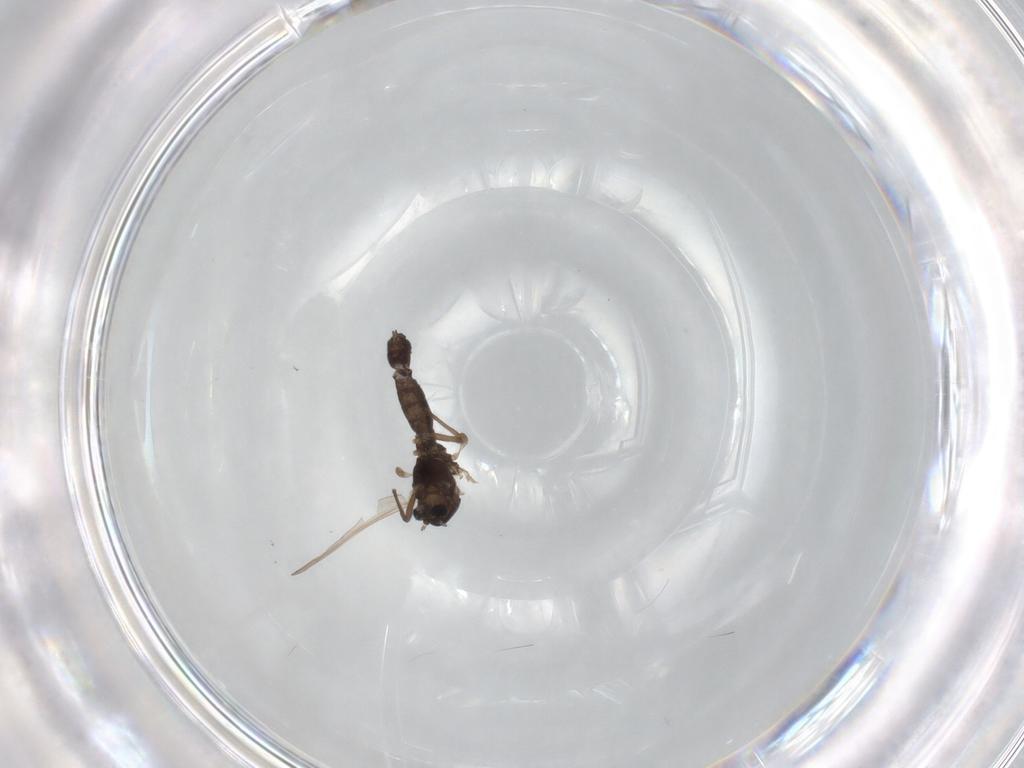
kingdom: Animalia
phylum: Arthropoda
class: Insecta
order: Diptera
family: Chironomidae
